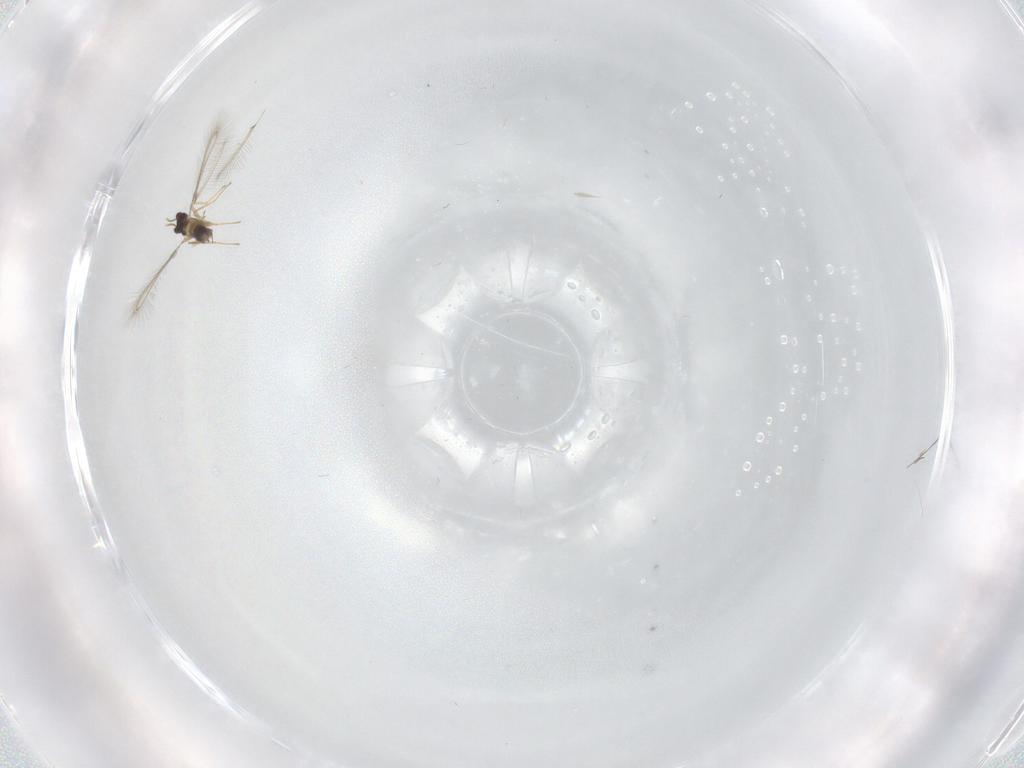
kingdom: Animalia
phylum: Arthropoda
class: Insecta
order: Hymenoptera
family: Mymaridae
